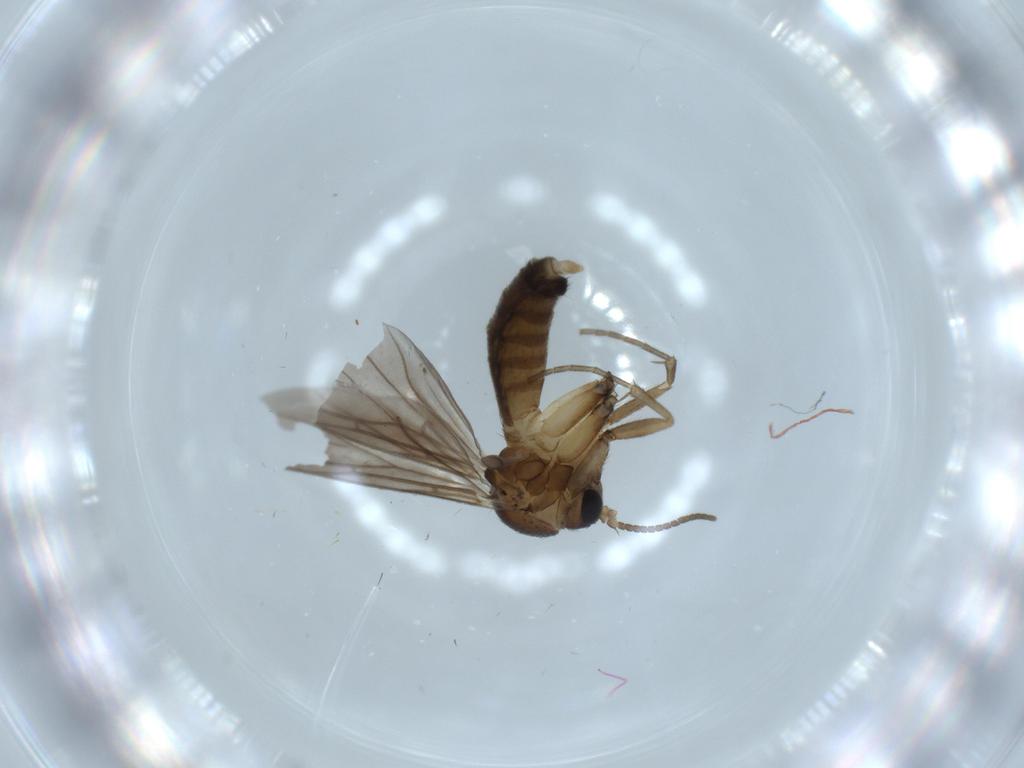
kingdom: Animalia
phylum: Arthropoda
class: Insecta
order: Diptera
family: Mycetophilidae
